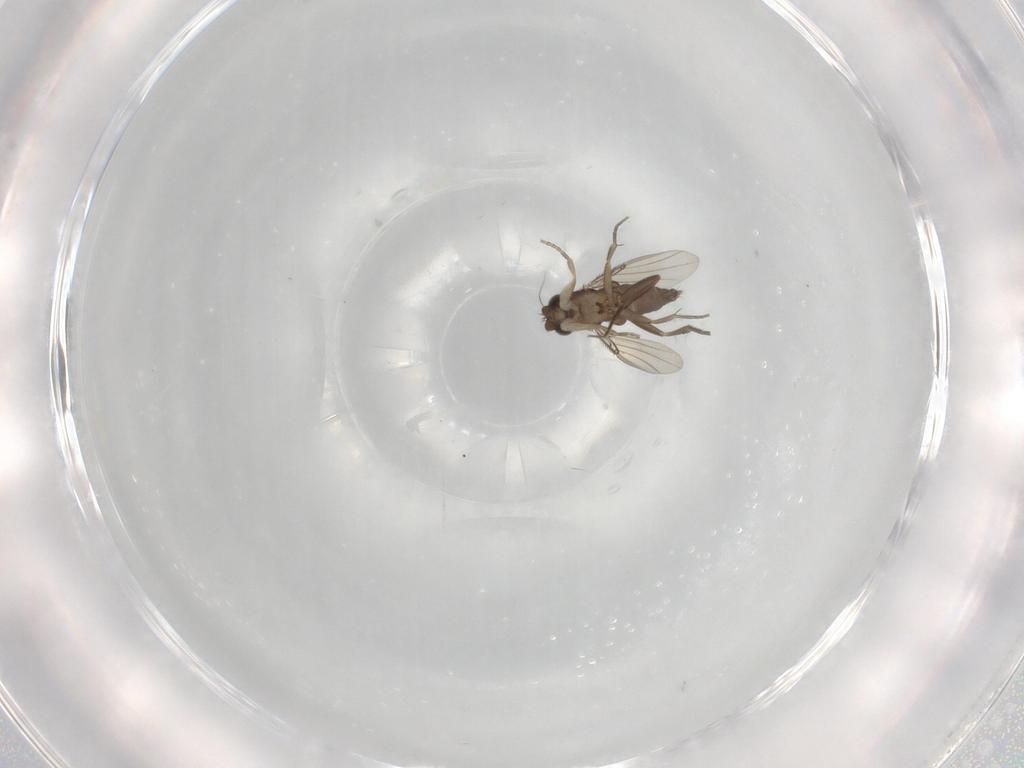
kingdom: Animalia
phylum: Arthropoda
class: Insecta
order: Diptera
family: Phoridae
